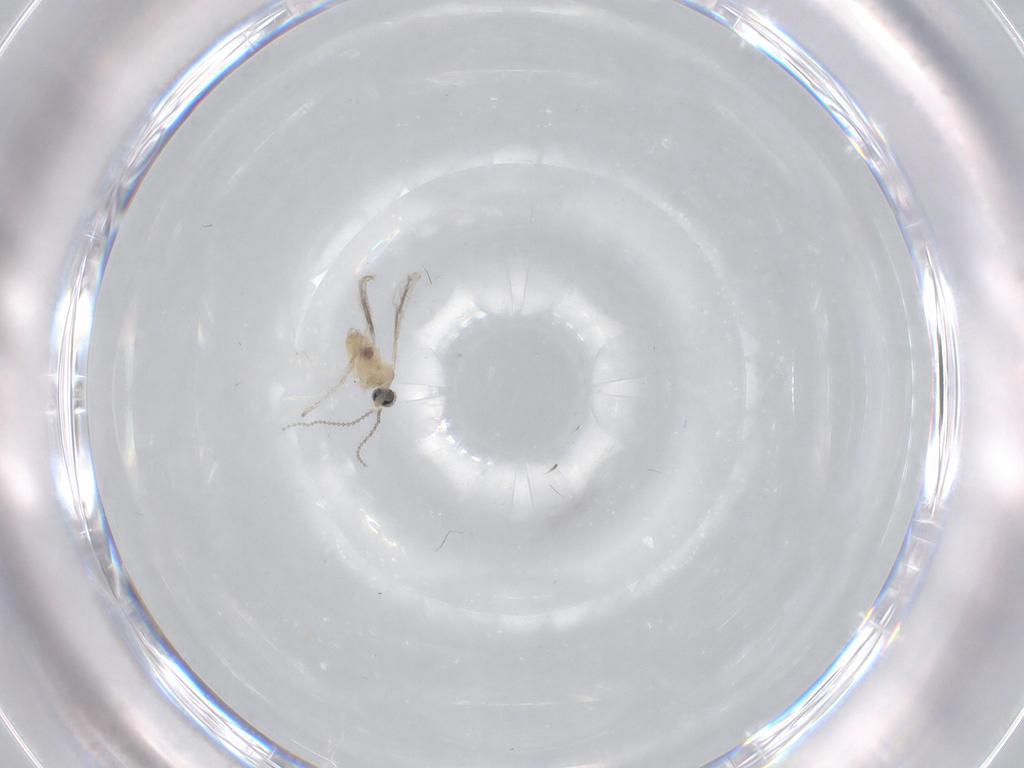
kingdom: Animalia
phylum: Arthropoda
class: Insecta
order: Diptera
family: Cecidomyiidae
